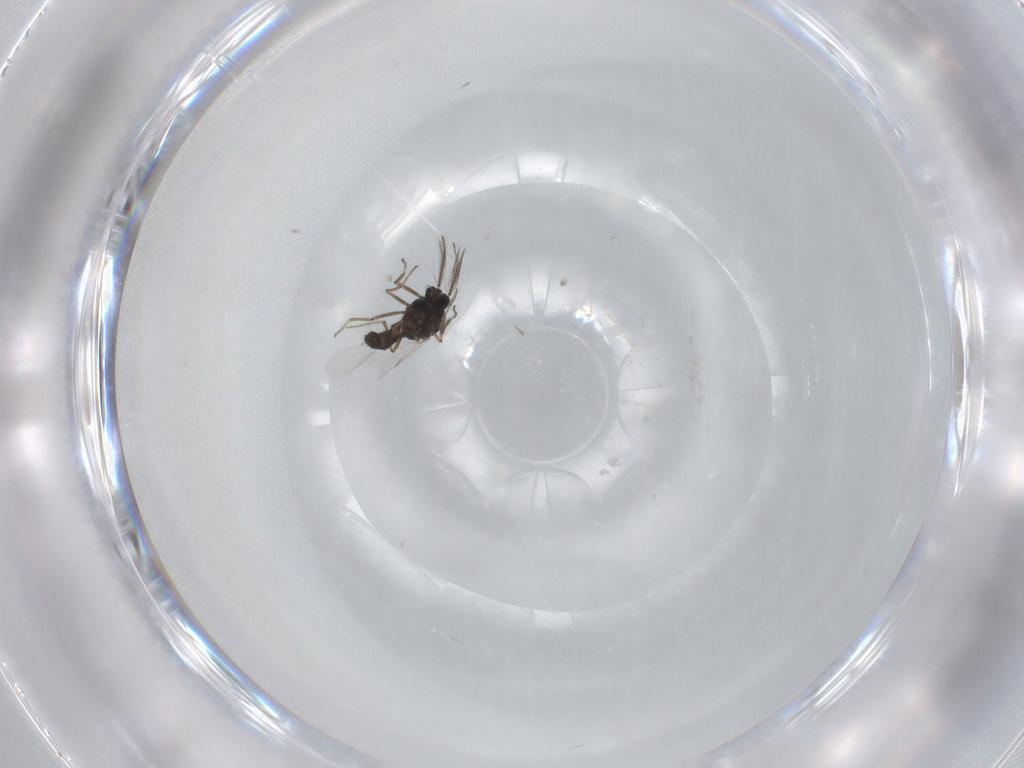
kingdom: Animalia
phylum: Arthropoda
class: Insecta
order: Diptera
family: Ceratopogonidae
